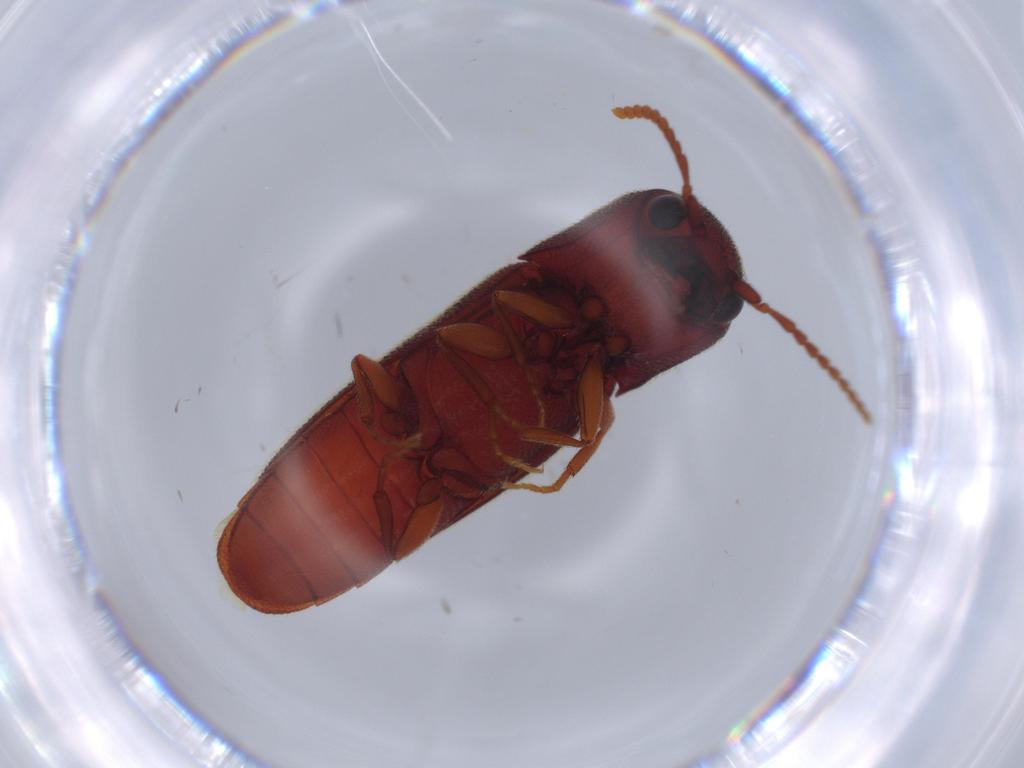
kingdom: Animalia
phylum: Arthropoda
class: Insecta
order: Coleoptera
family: Eucnemidae
